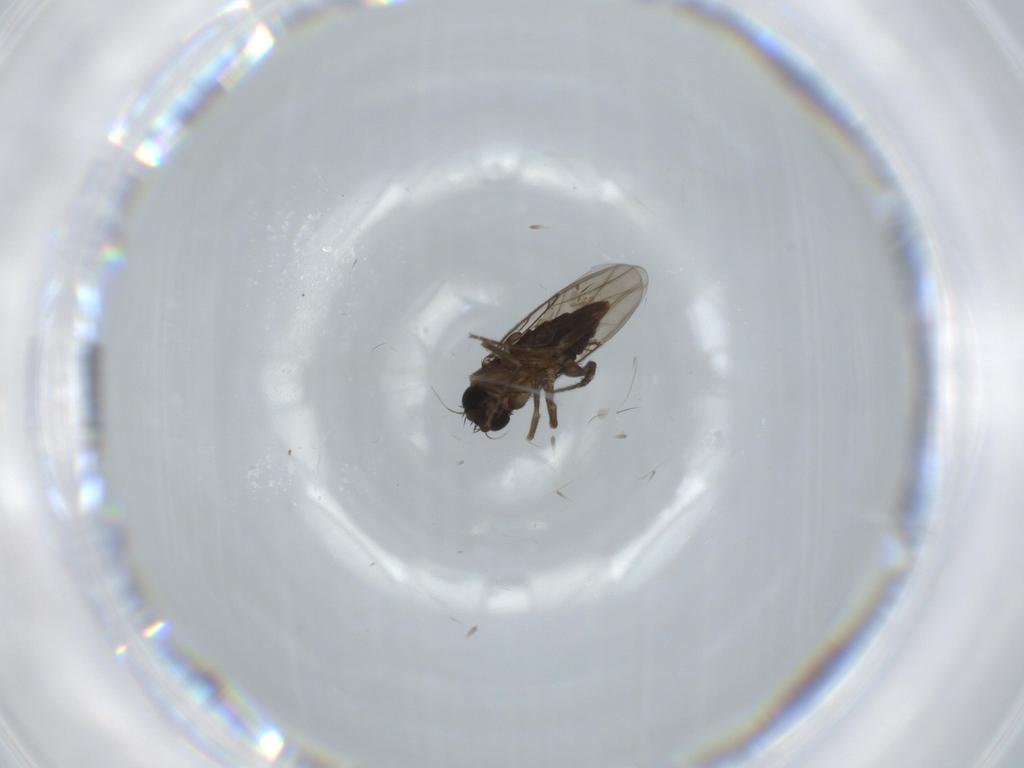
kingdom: Animalia
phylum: Arthropoda
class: Insecta
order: Diptera
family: Phoridae
